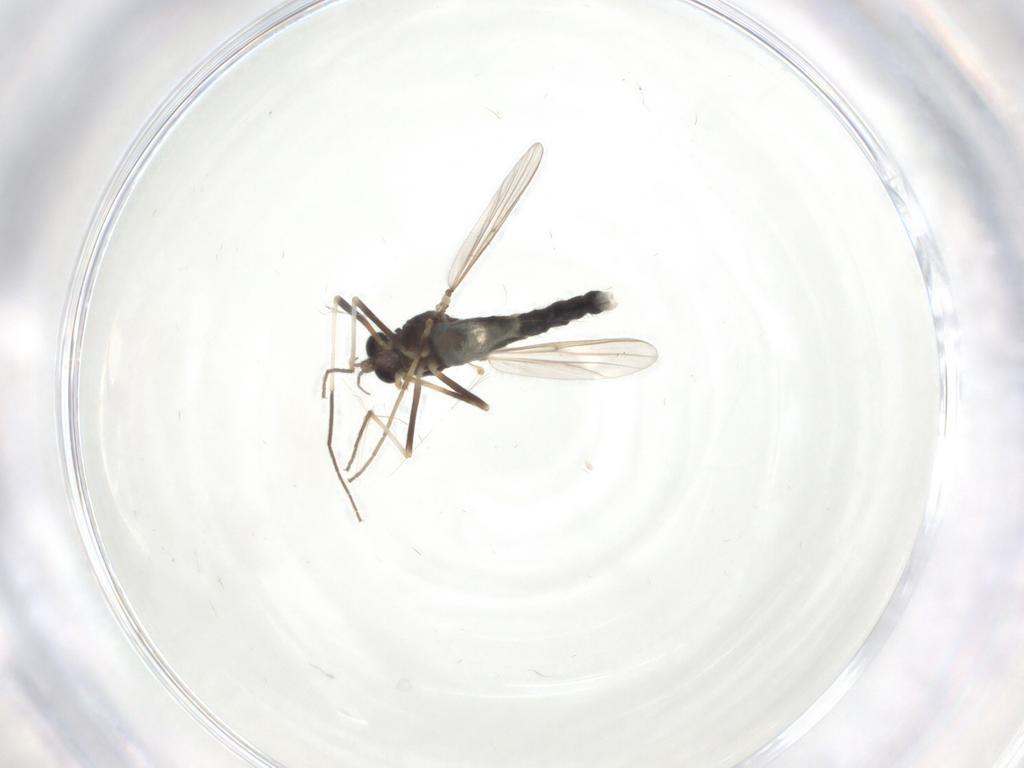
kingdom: Animalia
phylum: Arthropoda
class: Insecta
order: Diptera
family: Chironomidae
